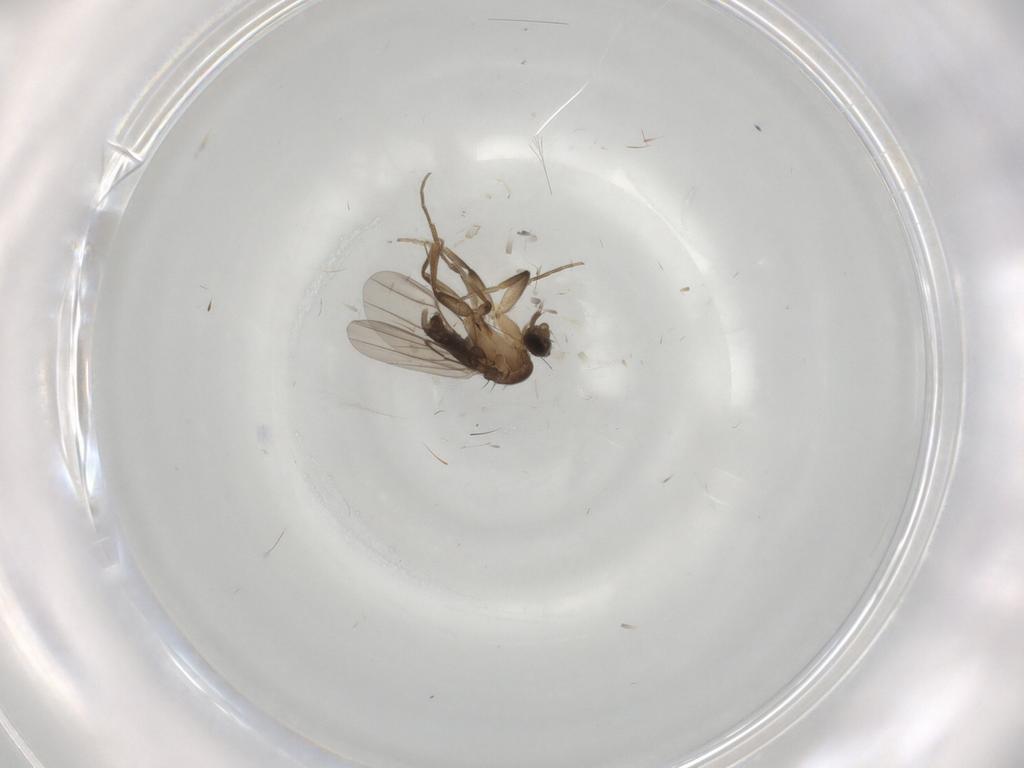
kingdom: Animalia
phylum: Arthropoda
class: Insecta
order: Diptera
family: Phoridae
